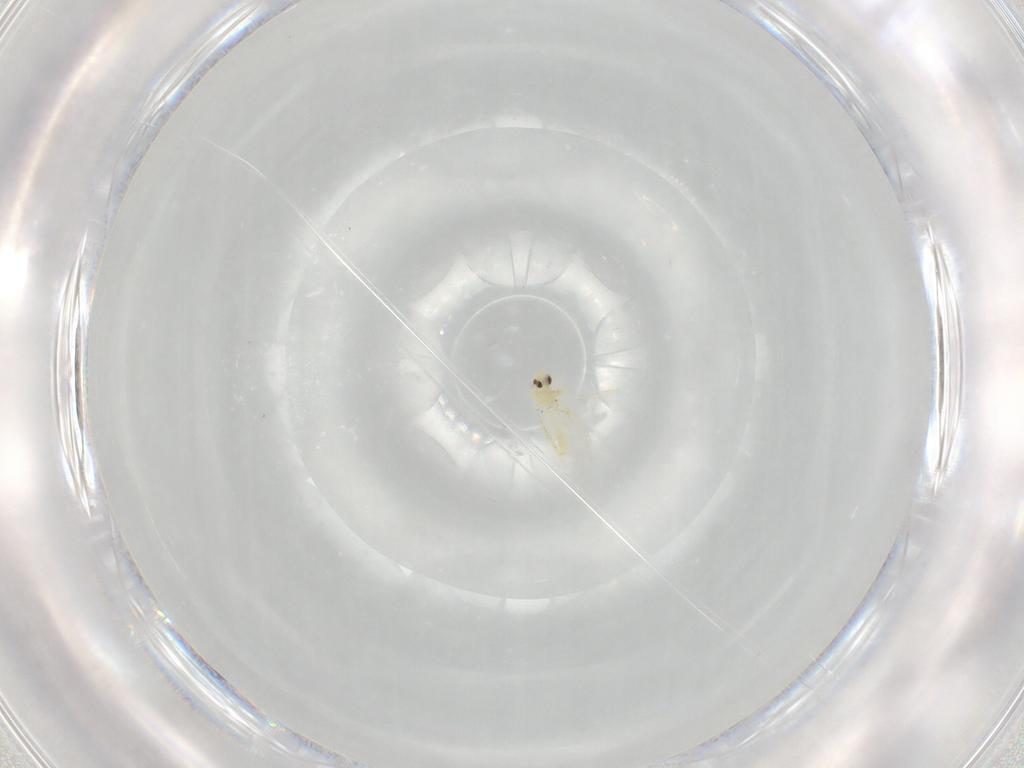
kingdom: Animalia
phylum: Arthropoda
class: Insecta
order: Hemiptera
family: Aleyrodidae
